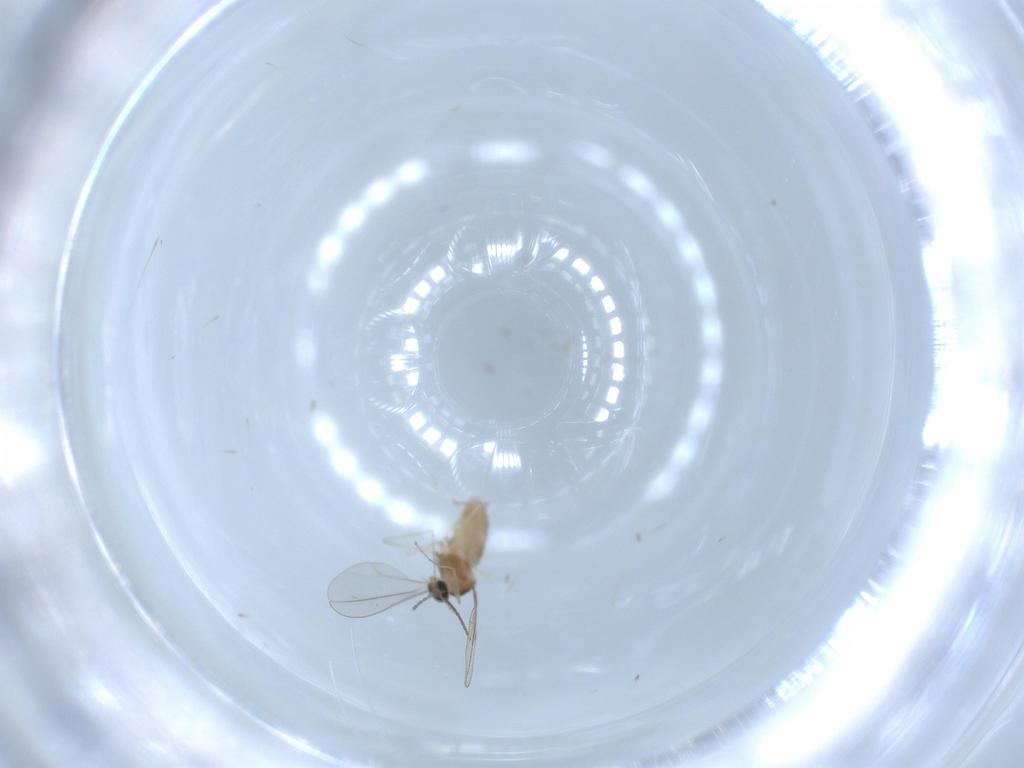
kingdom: Animalia
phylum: Arthropoda
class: Insecta
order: Diptera
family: Cecidomyiidae
